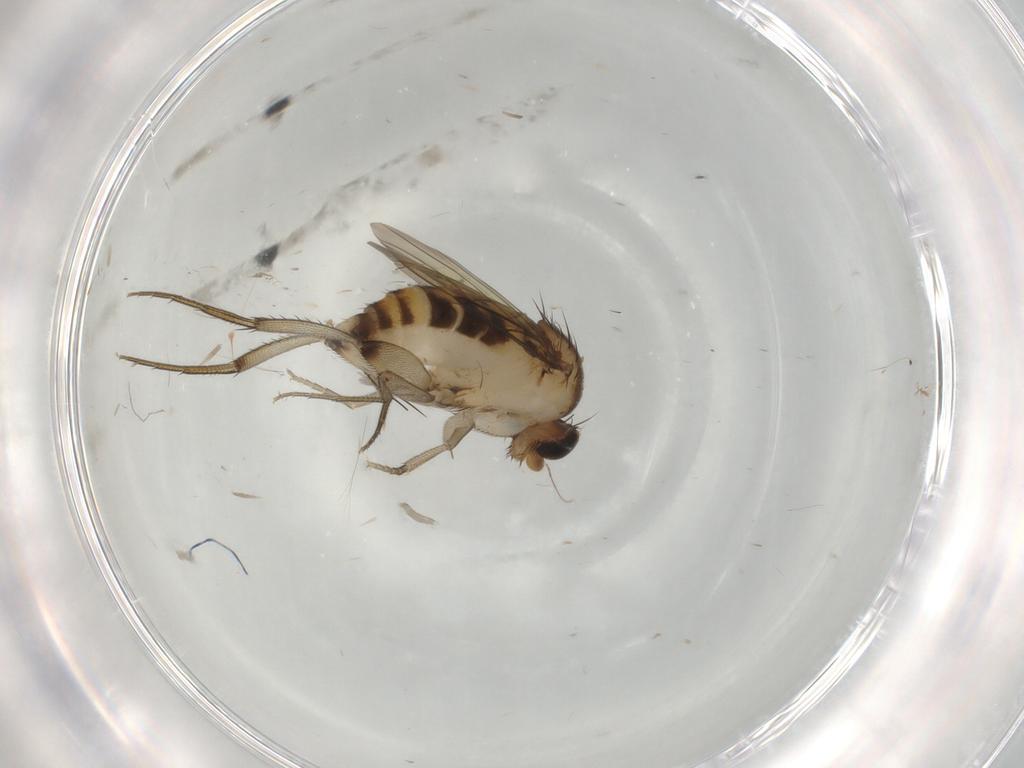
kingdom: Animalia
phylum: Arthropoda
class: Insecta
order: Diptera
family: Phoridae
